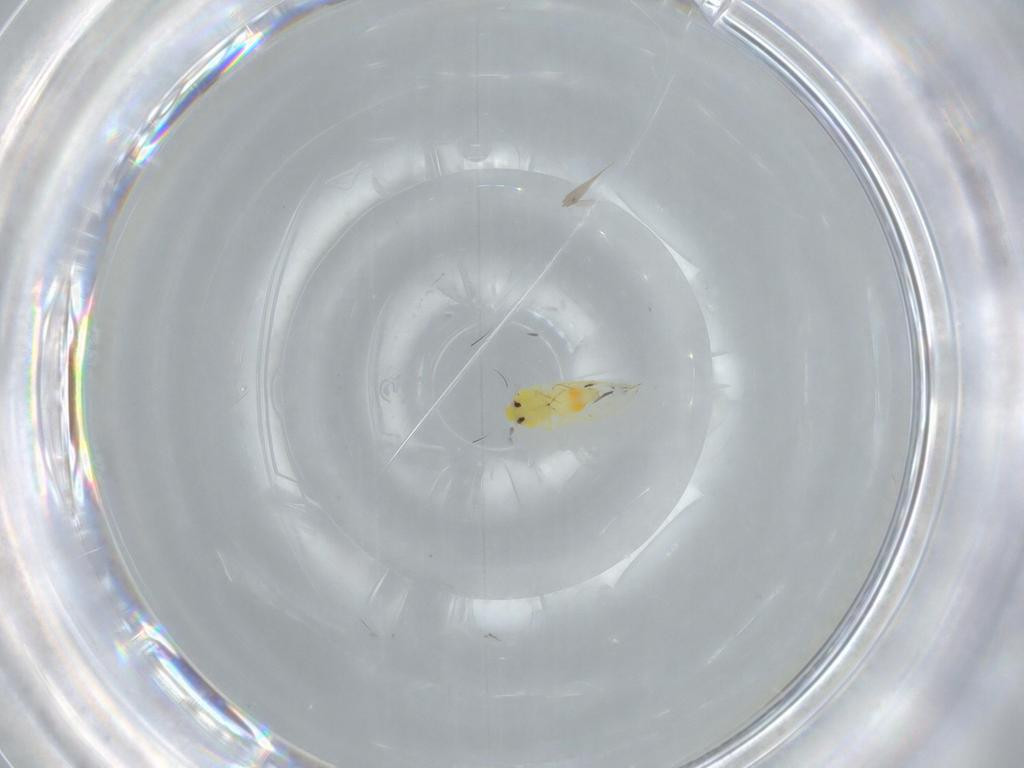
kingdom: Animalia
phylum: Arthropoda
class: Insecta
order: Hemiptera
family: Aleyrodidae
